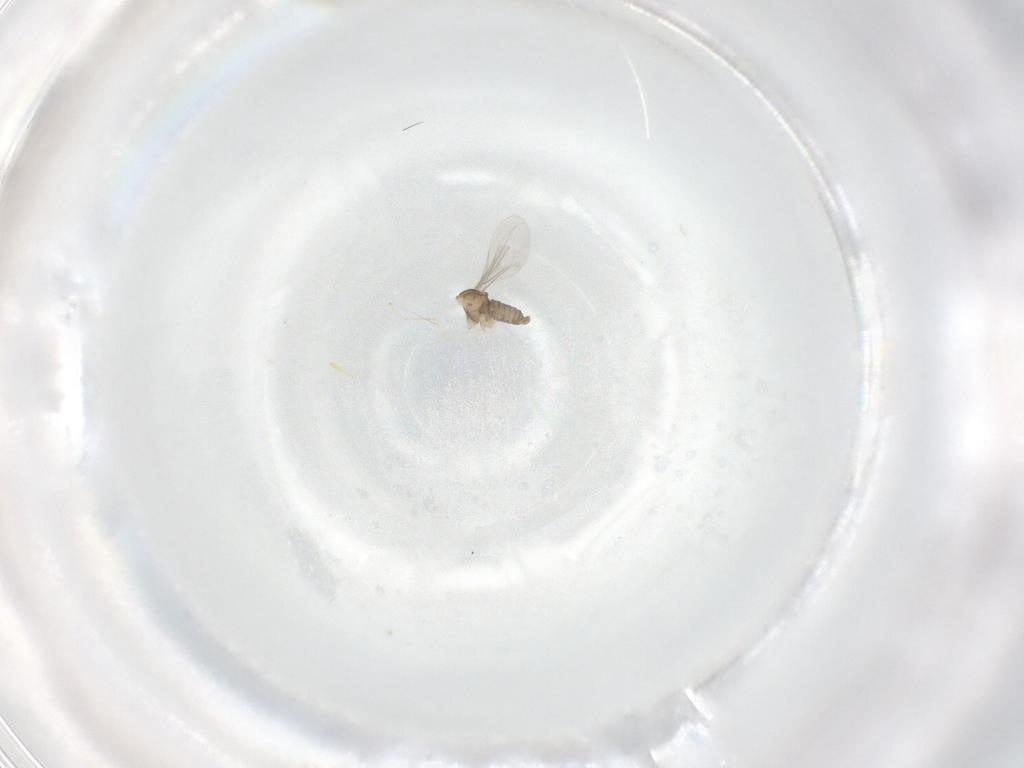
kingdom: Animalia
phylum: Arthropoda
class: Insecta
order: Diptera
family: Cecidomyiidae
